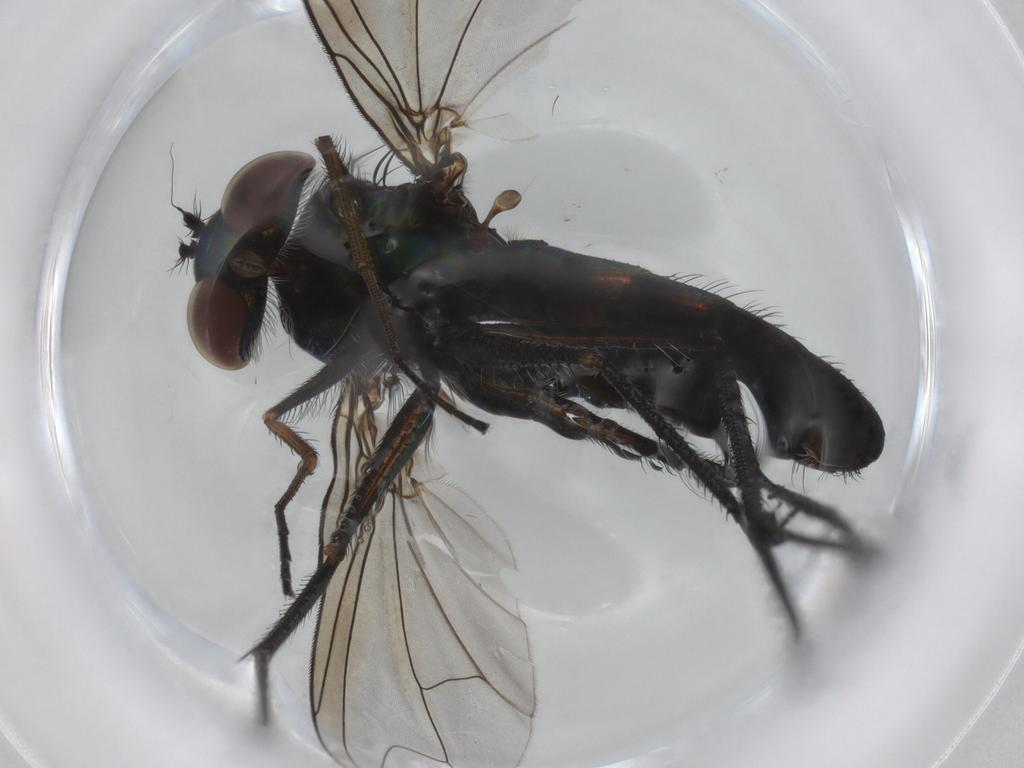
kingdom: Animalia
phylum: Arthropoda
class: Insecta
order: Diptera
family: Dolichopodidae
